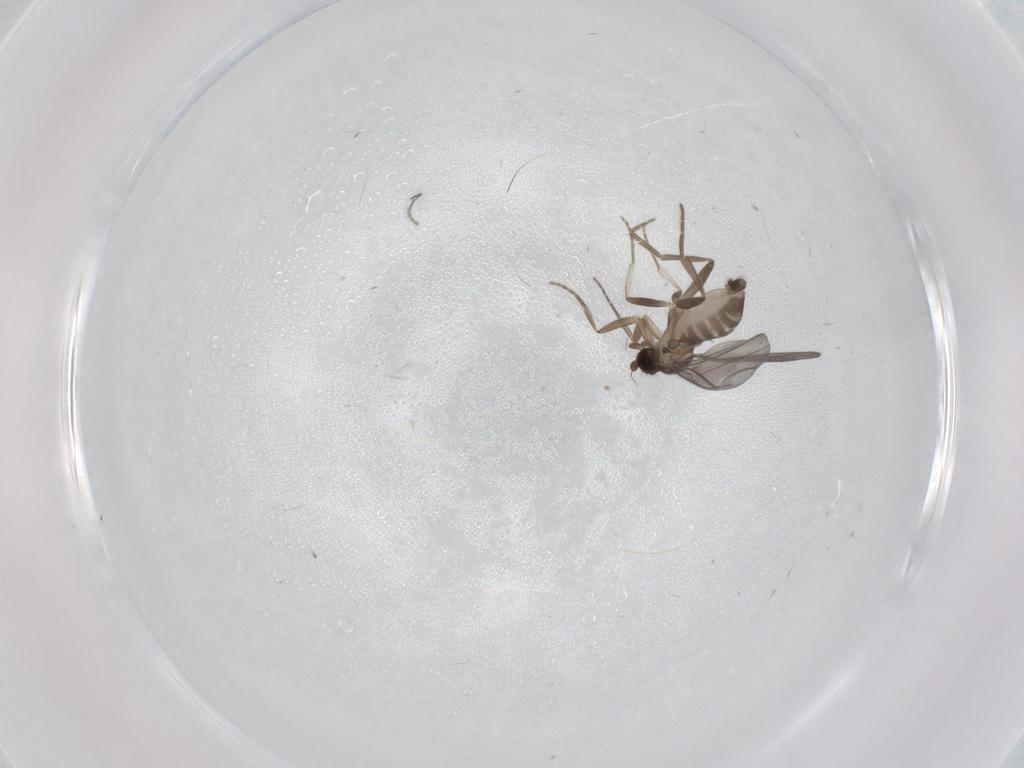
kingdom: Animalia
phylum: Arthropoda
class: Insecta
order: Diptera
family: Phoridae
